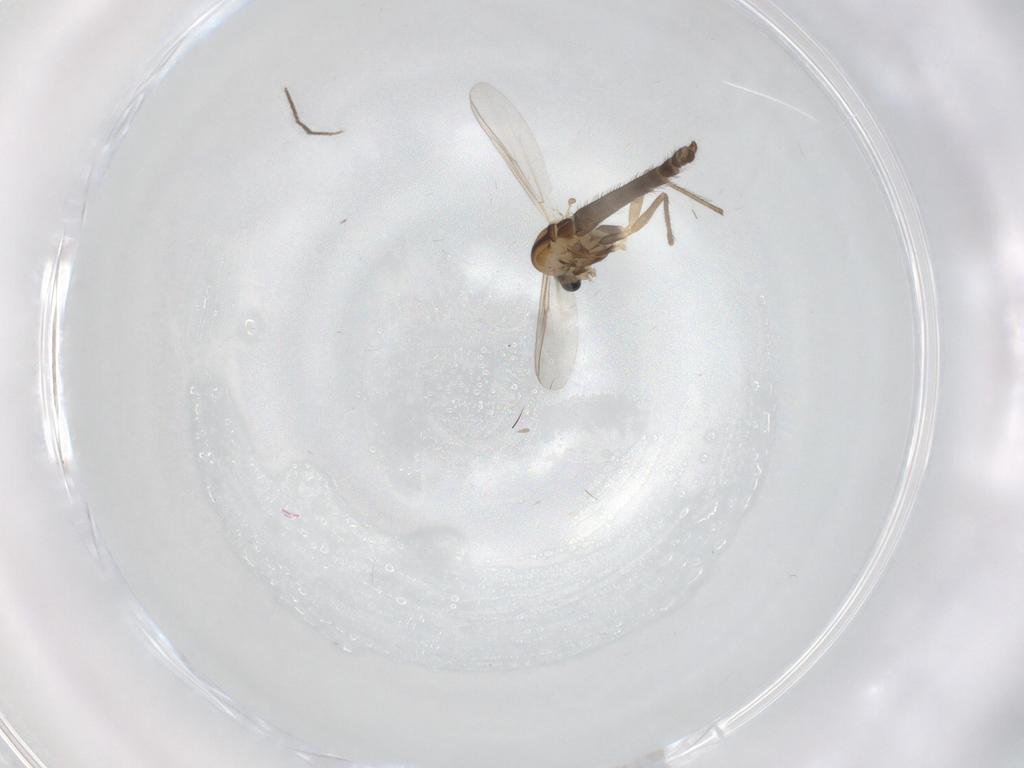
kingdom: Animalia
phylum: Arthropoda
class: Insecta
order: Diptera
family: Chironomidae
